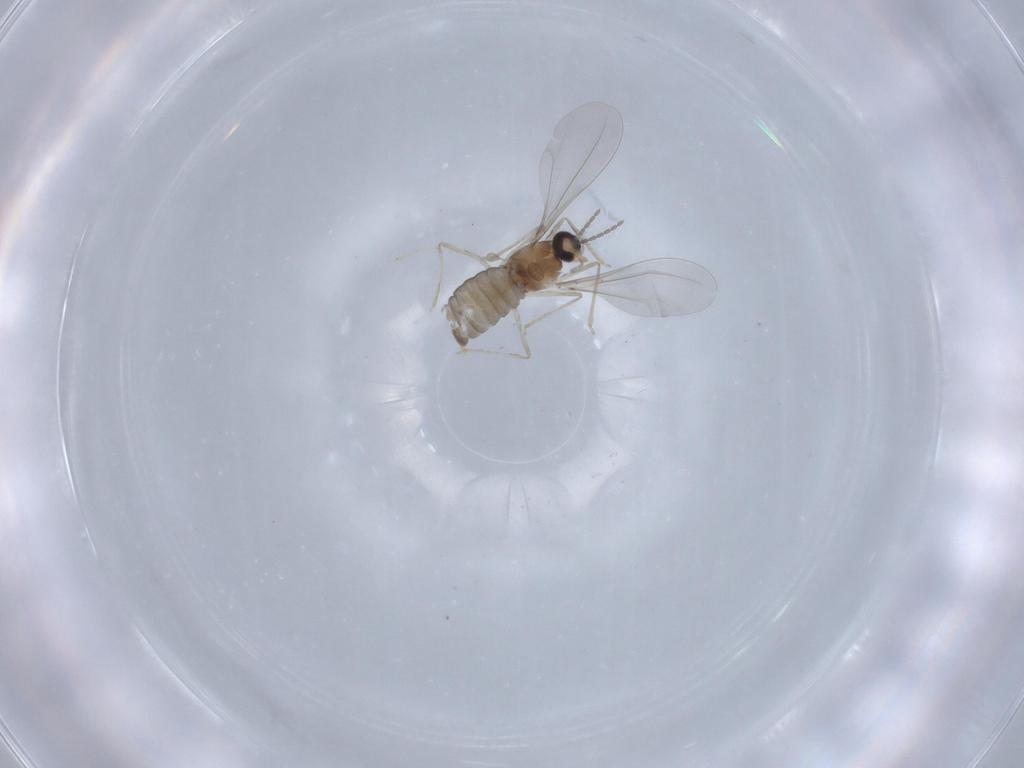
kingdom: Animalia
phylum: Arthropoda
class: Insecta
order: Diptera
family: Cecidomyiidae
